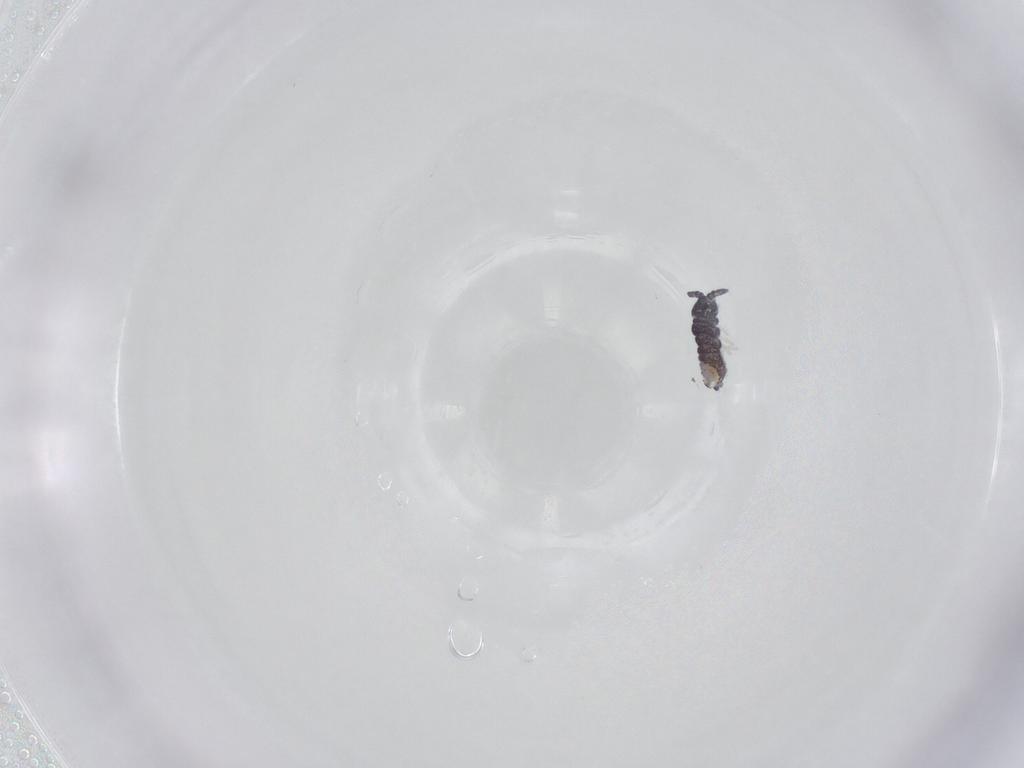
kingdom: Animalia
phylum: Arthropoda
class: Collembola
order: Poduromorpha
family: Neanuridae
